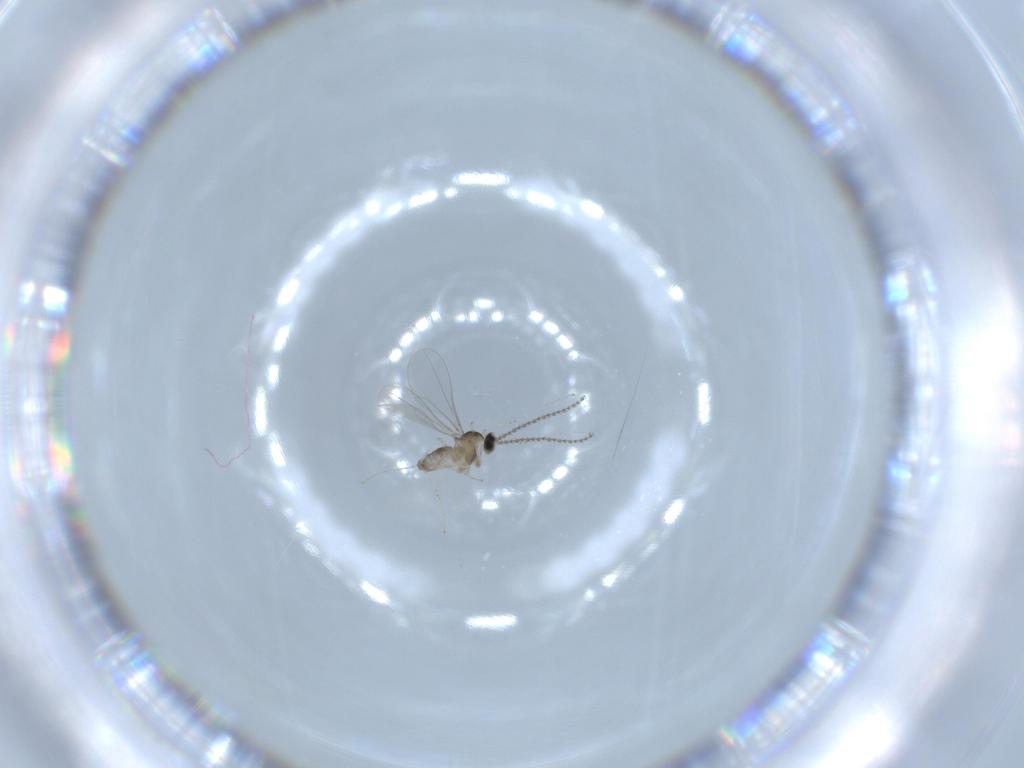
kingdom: Animalia
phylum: Arthropoda
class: Insecta
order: Diptera
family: Cecidomyiidae
